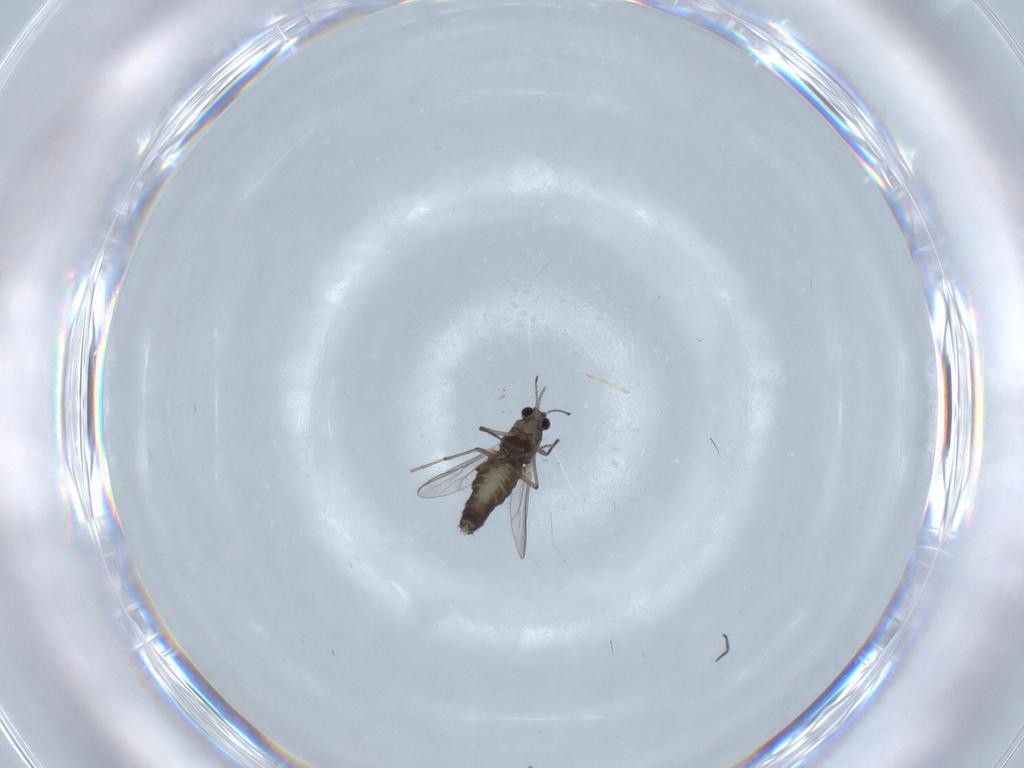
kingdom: Animalia
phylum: Arthropoda
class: Insecta
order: Diptera
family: Chironomidae
